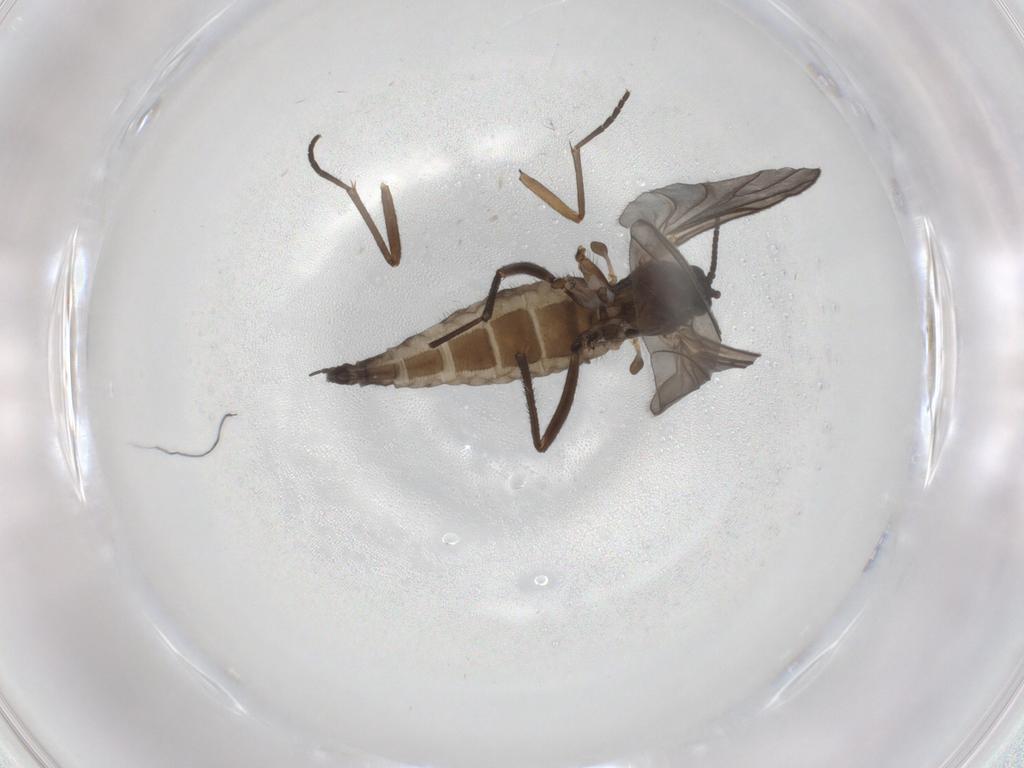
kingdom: Animalia
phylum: Arthropoda
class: Insecta
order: Diptera
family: Sciaridae
